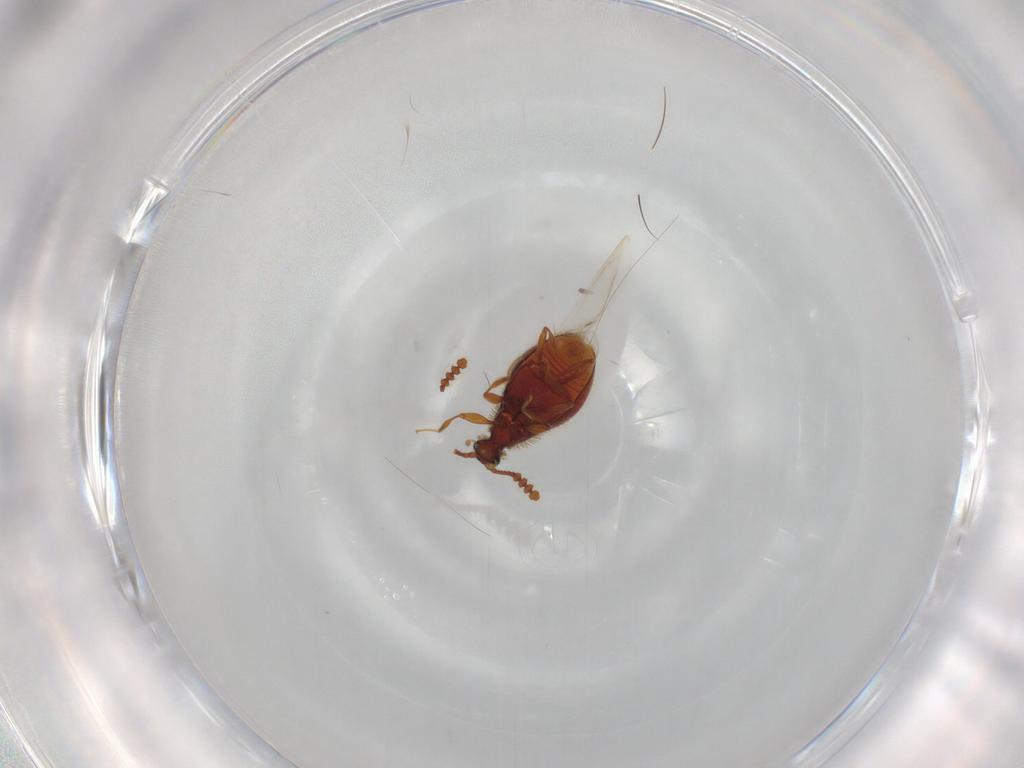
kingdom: Animalia
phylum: Arthropoda
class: Insecta
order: Coleoptera
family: Staphylinidae
